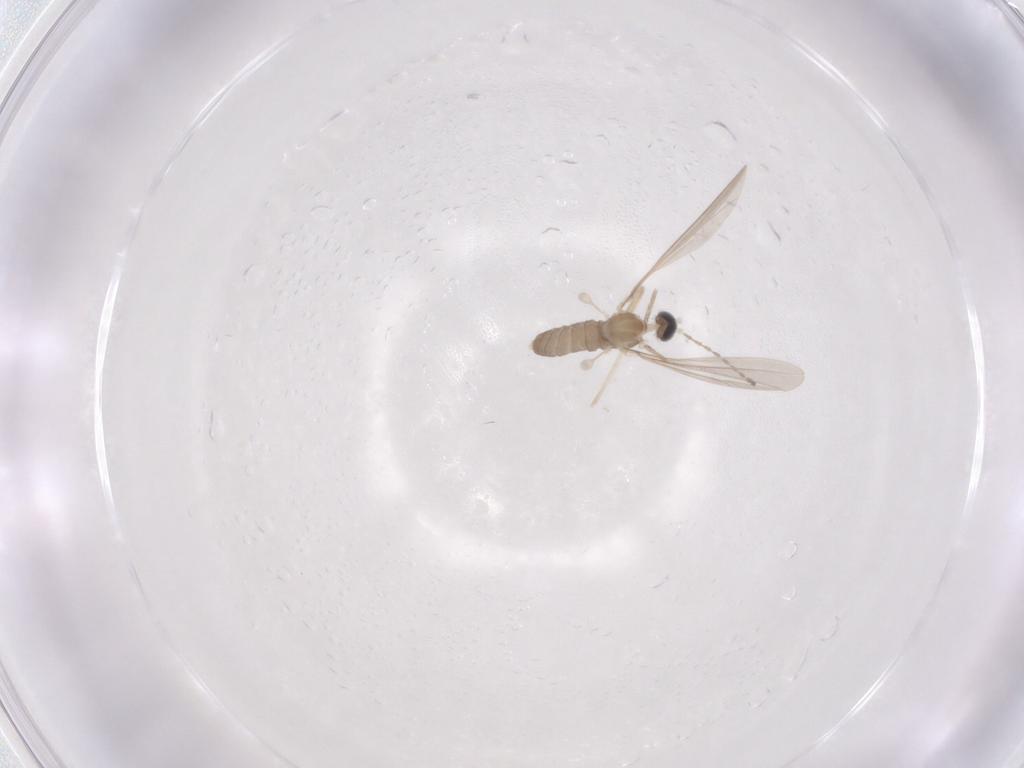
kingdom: Animalia
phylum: Arthropoda
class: Insecta
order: Diptera
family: Cecidomyiidae
